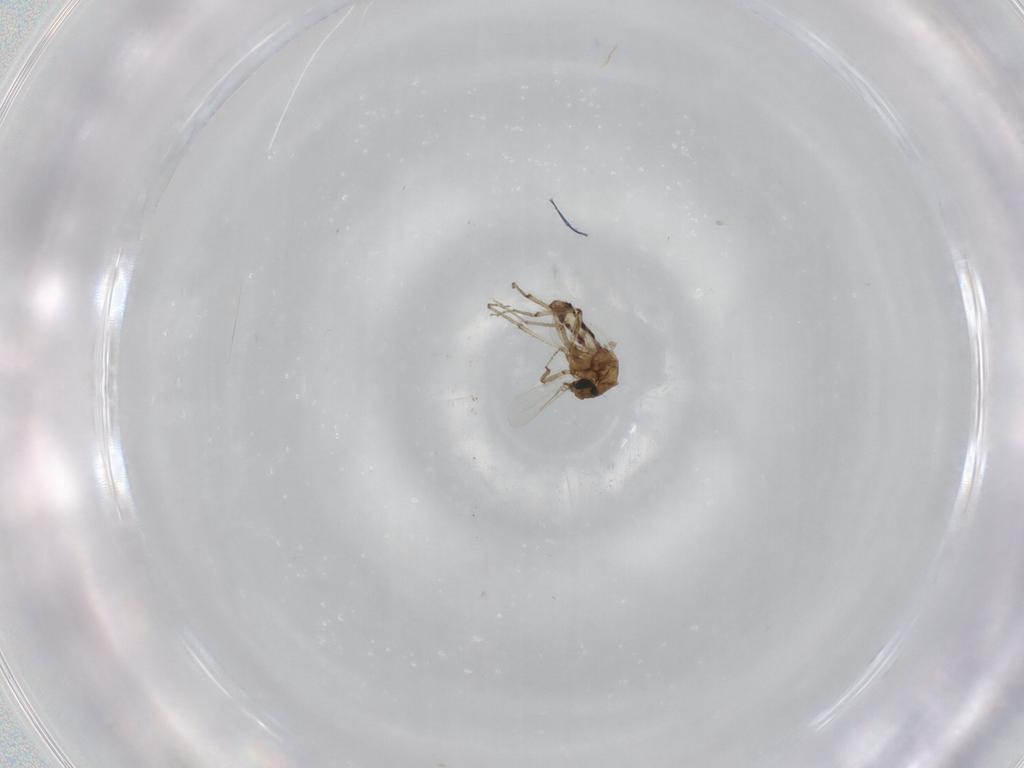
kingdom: Animalia
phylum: Arthropoda
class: Insecta
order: Diptera
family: Ceratopogonidae
